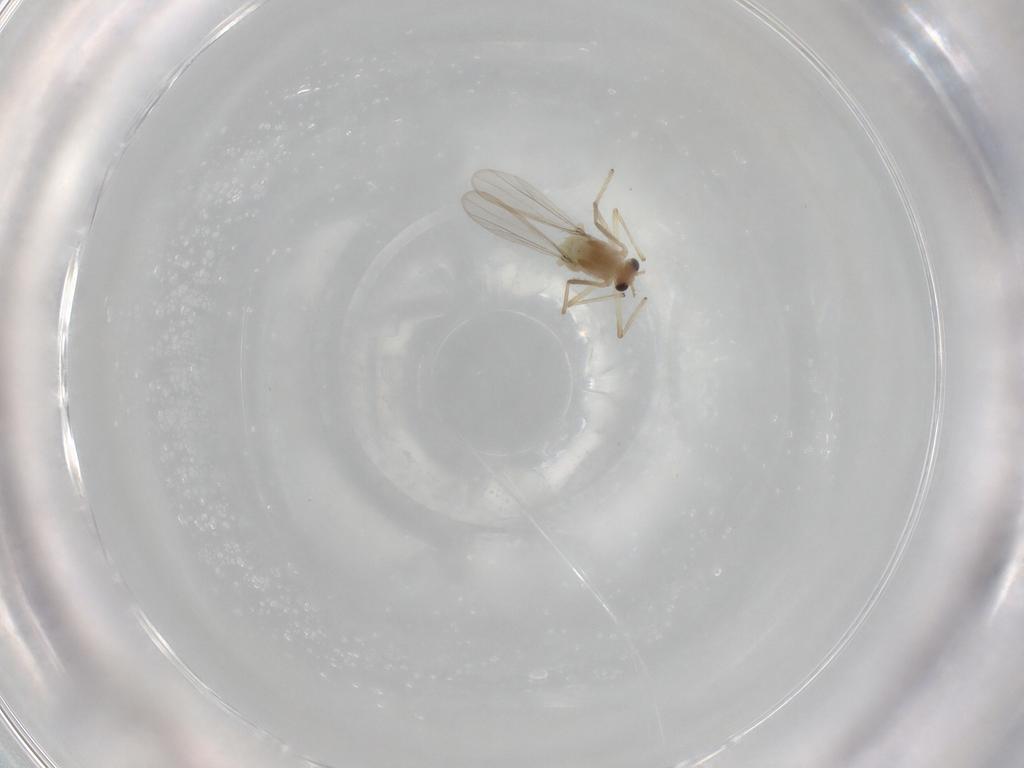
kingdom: Animalia
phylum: Arthropoda
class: Insecta
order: Diptera
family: Chironomidae
